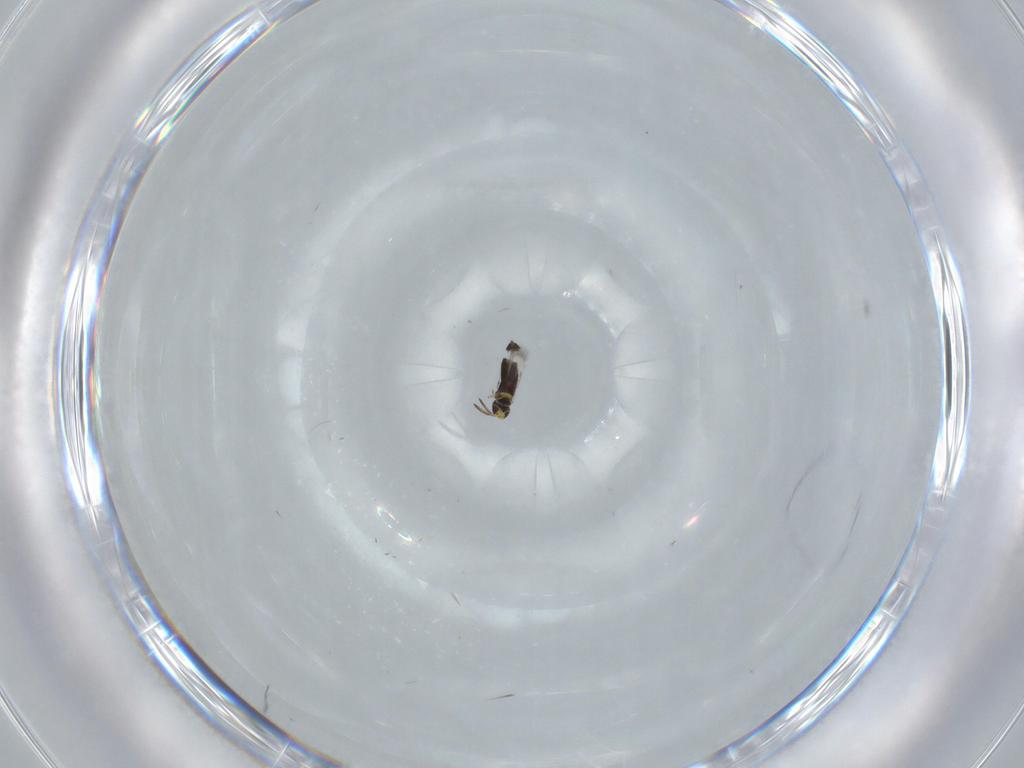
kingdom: Animalia
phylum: Arthropoda
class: Insecta
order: Hymenoptera
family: Signiphoridae
